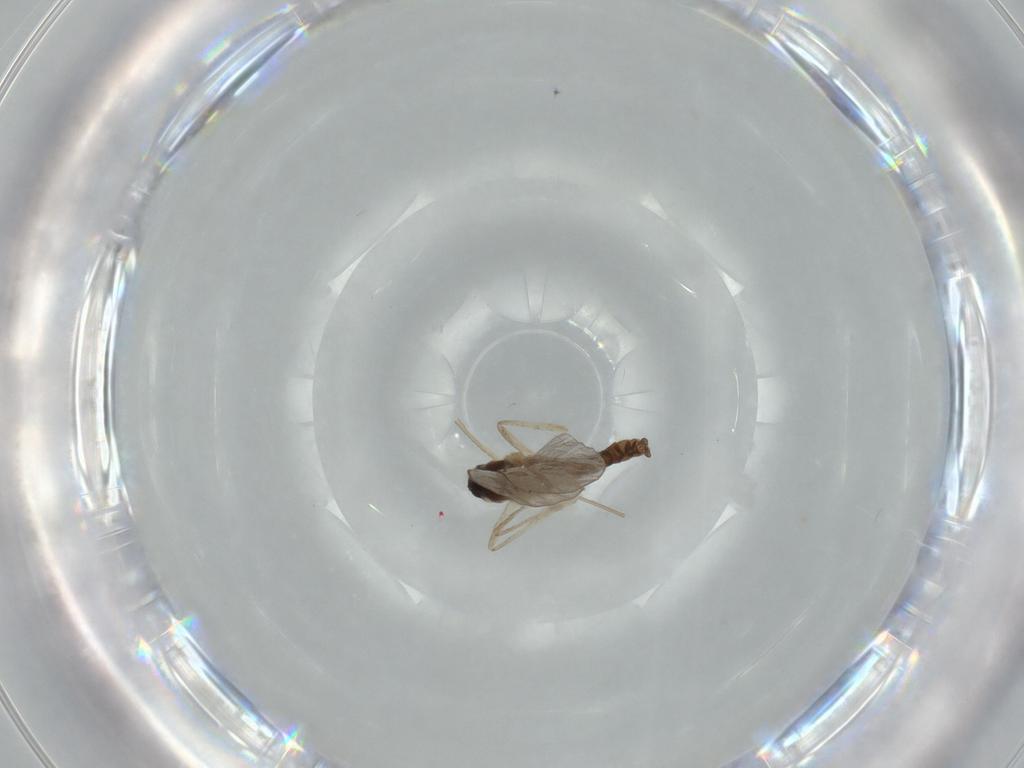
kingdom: Animalia
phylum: Arthropoda
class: Insecta
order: Diptera
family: Cecidomyiidae
